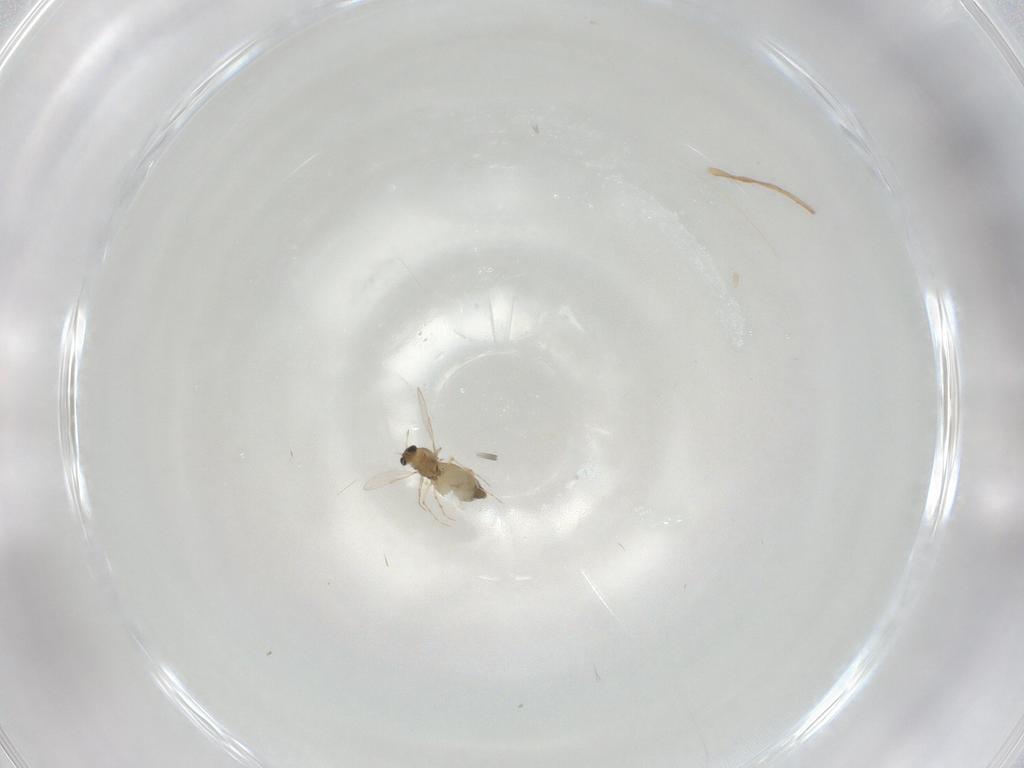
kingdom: Animalia
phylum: Arthropoda
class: Insecta
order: Diptera
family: Chironomidae
